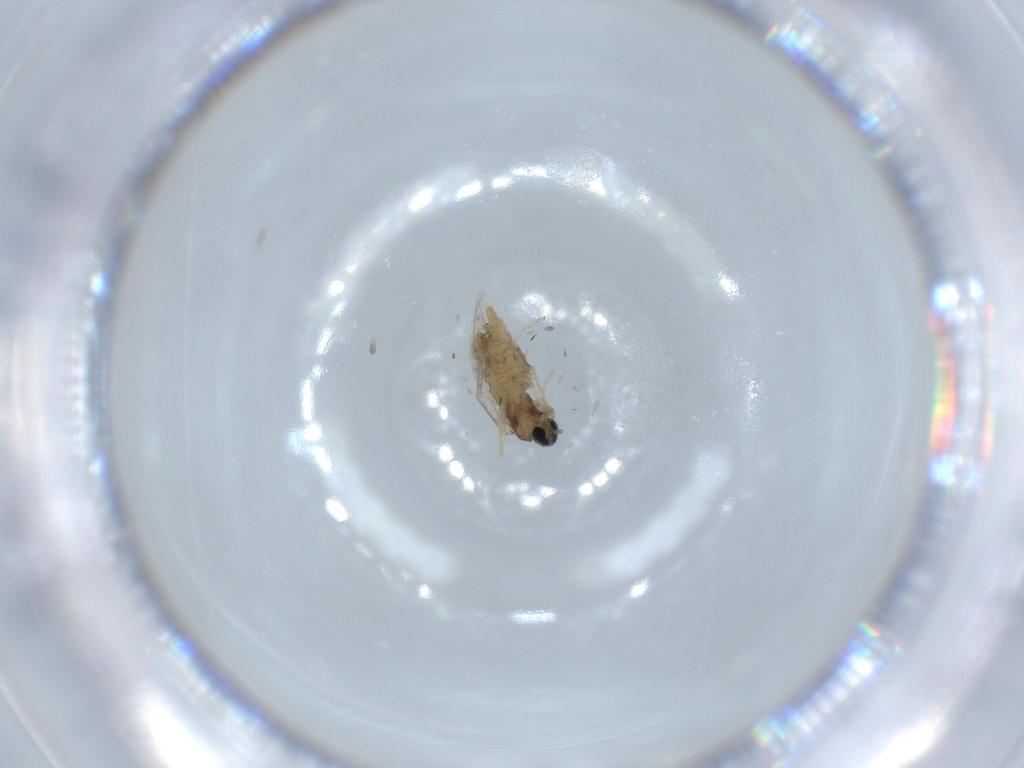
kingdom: Animalia
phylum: Arthropoda
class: Insecta
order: Diptera
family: Cecidomyiidae
